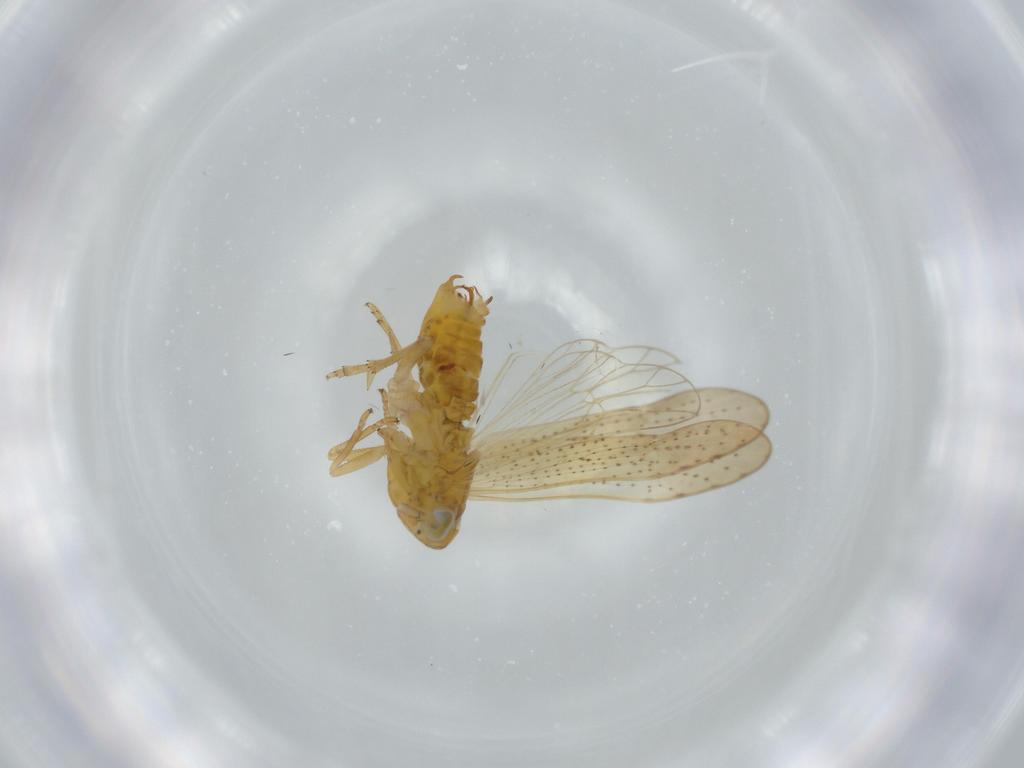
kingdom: Animalia
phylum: Arthropoda
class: Insecta
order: Hemiptera
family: Delphacidae
